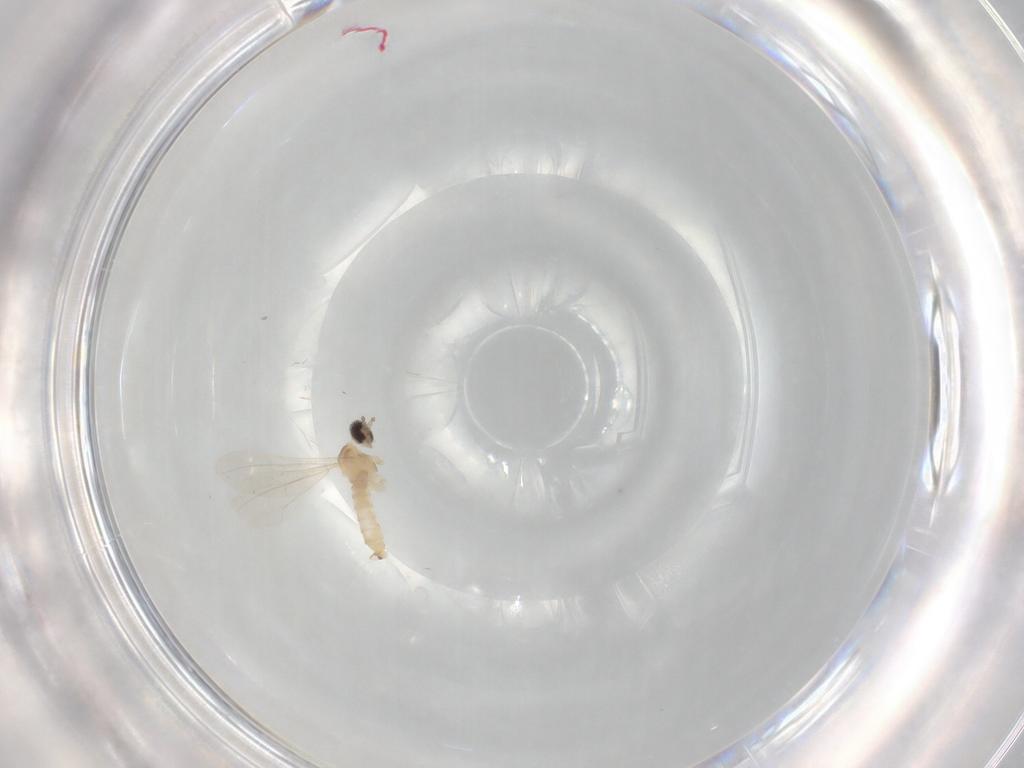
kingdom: Animalia
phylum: Arthropoda
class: Insecta
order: Diptera
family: Cecidomyiidae
